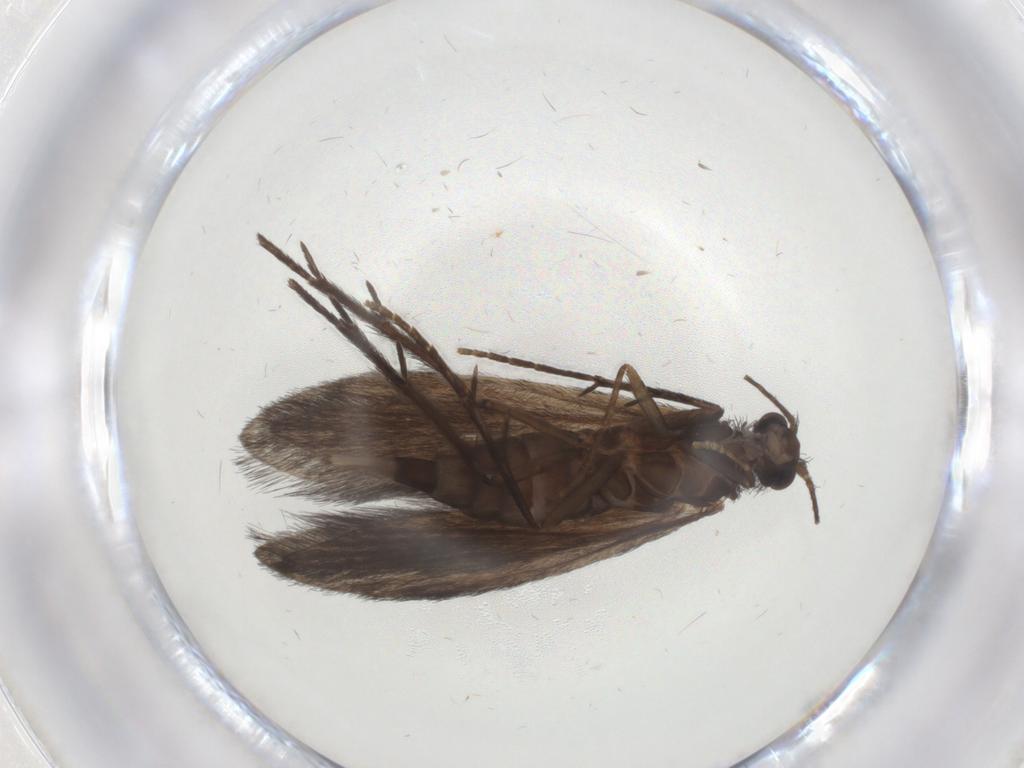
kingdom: Animalia
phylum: Arthropoda
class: Insecta
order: Trichoptera
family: Xiphocentronidae
